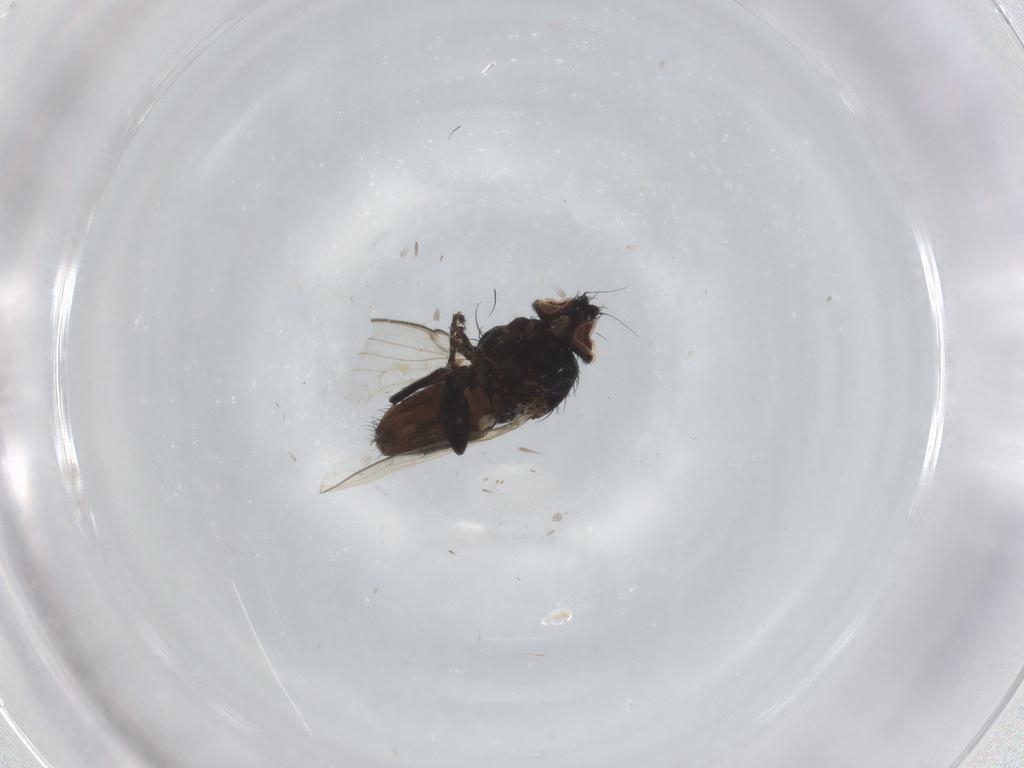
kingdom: Animalia
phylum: Arthropoda
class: Insecta
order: Diptera
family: Milichiidae
